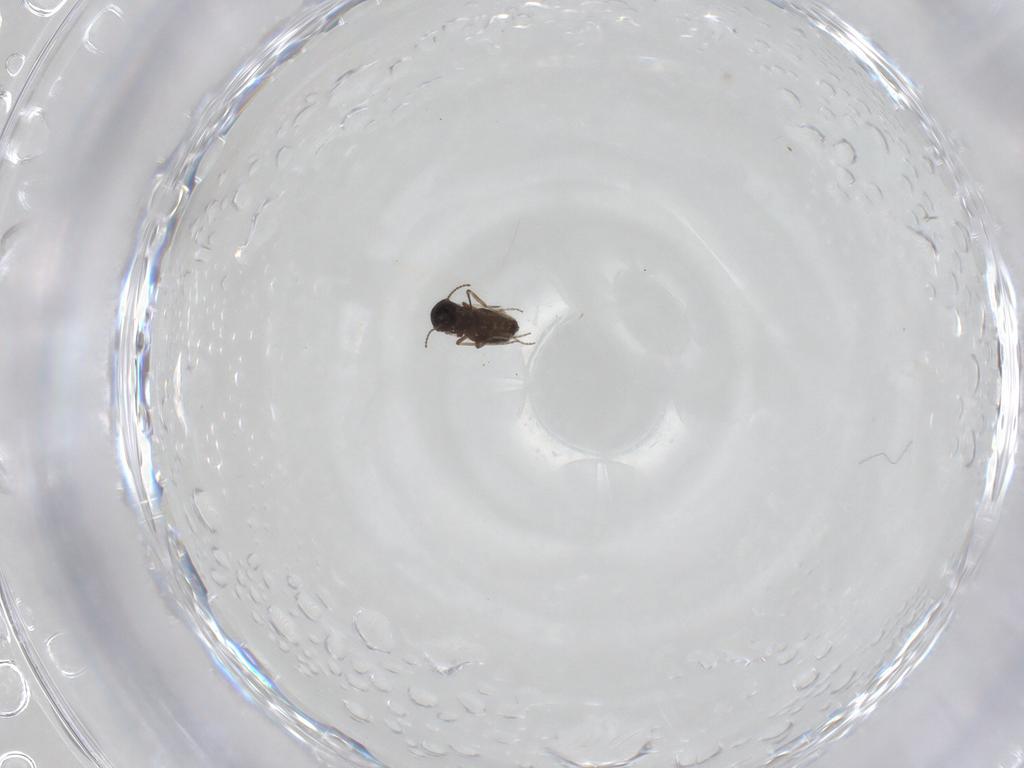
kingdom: Animalia
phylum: Arthropoda
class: Insecta
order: Diptera
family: Ceratopogonidae
